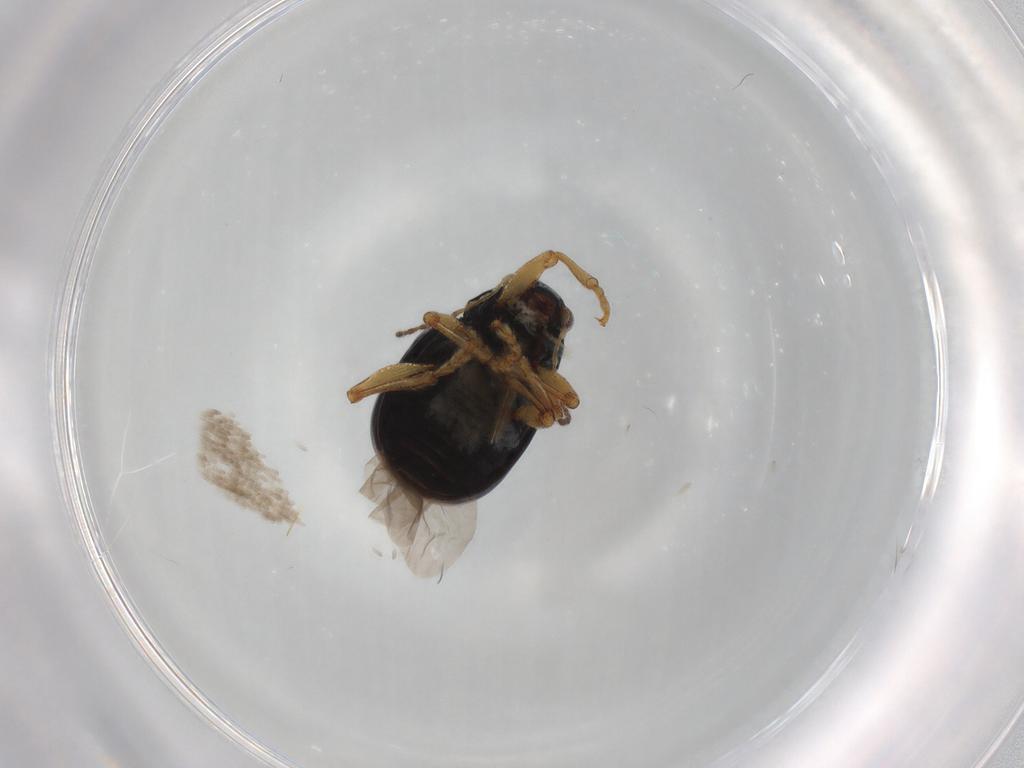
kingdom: Animalia
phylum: Arthropoda
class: Insecta
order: Coleoptera
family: Chrysomelidae
